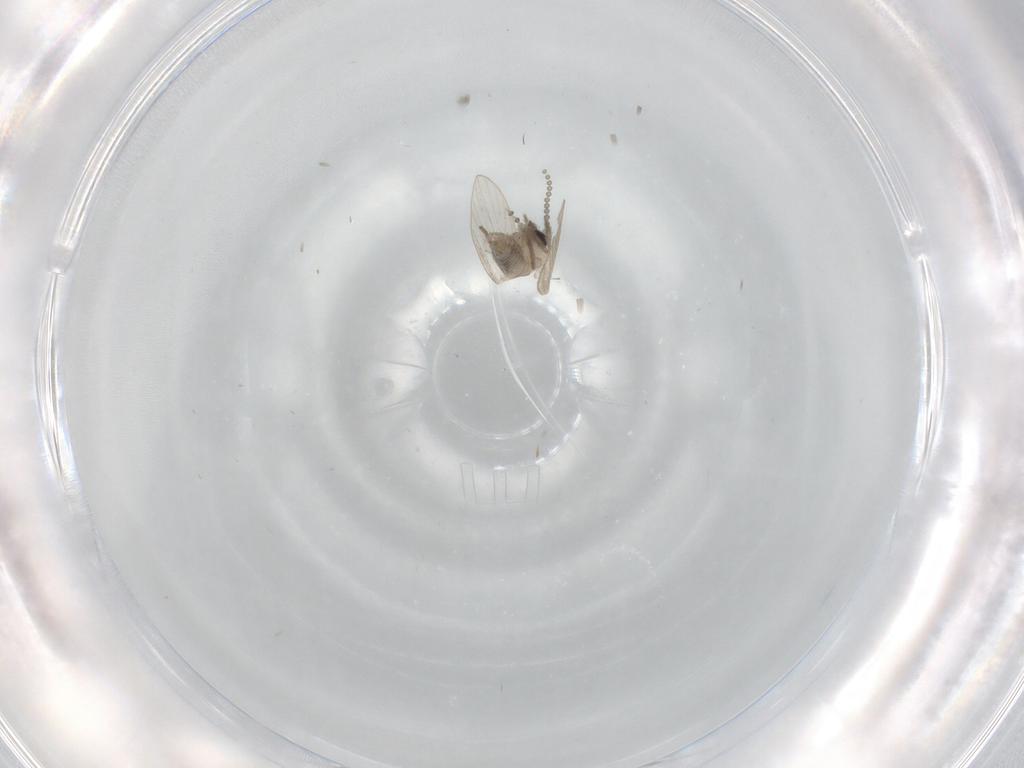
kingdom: Animalia
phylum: Arthropoda
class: Insecta
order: Diptera
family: Psychodidae
